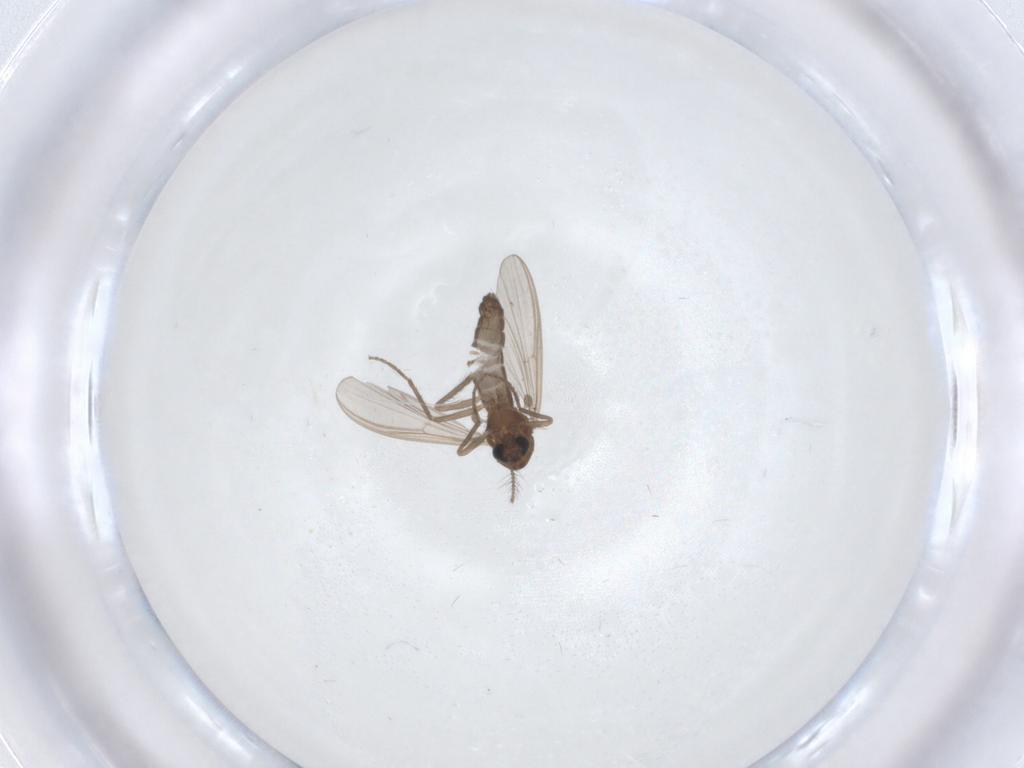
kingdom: Animalia
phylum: Arthropoda
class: Insecta
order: Diptera
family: Chironomidae
